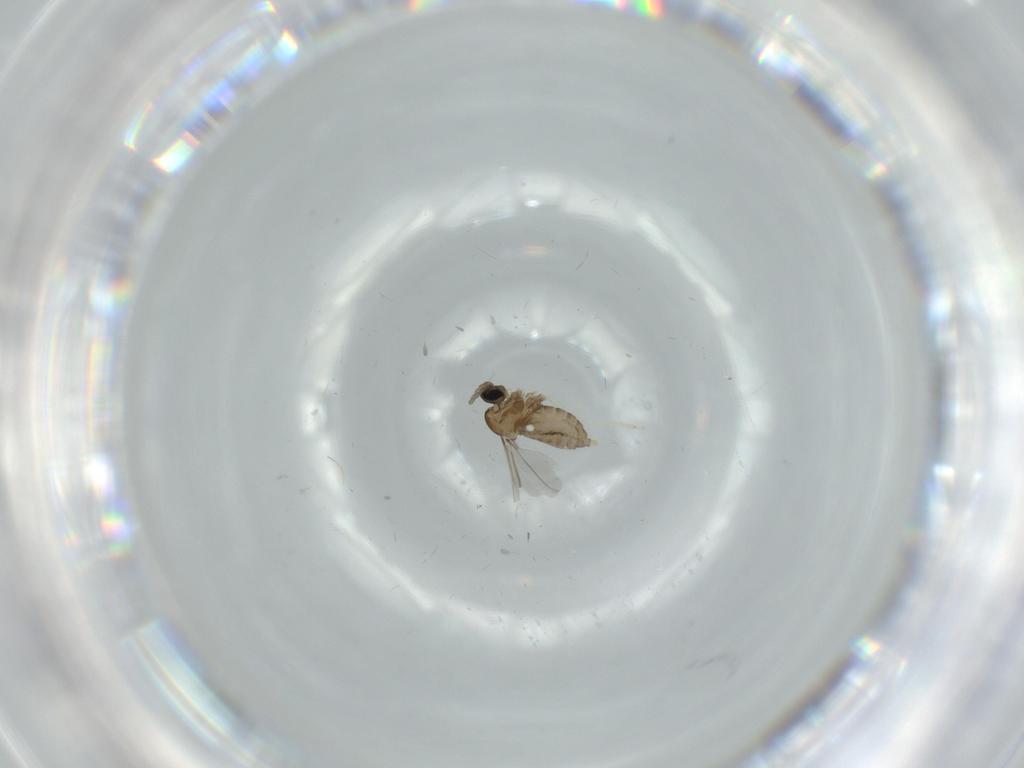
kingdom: Animalia
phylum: Arthropoda
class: Insecta
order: Diptera
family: Cecidomyiidae
